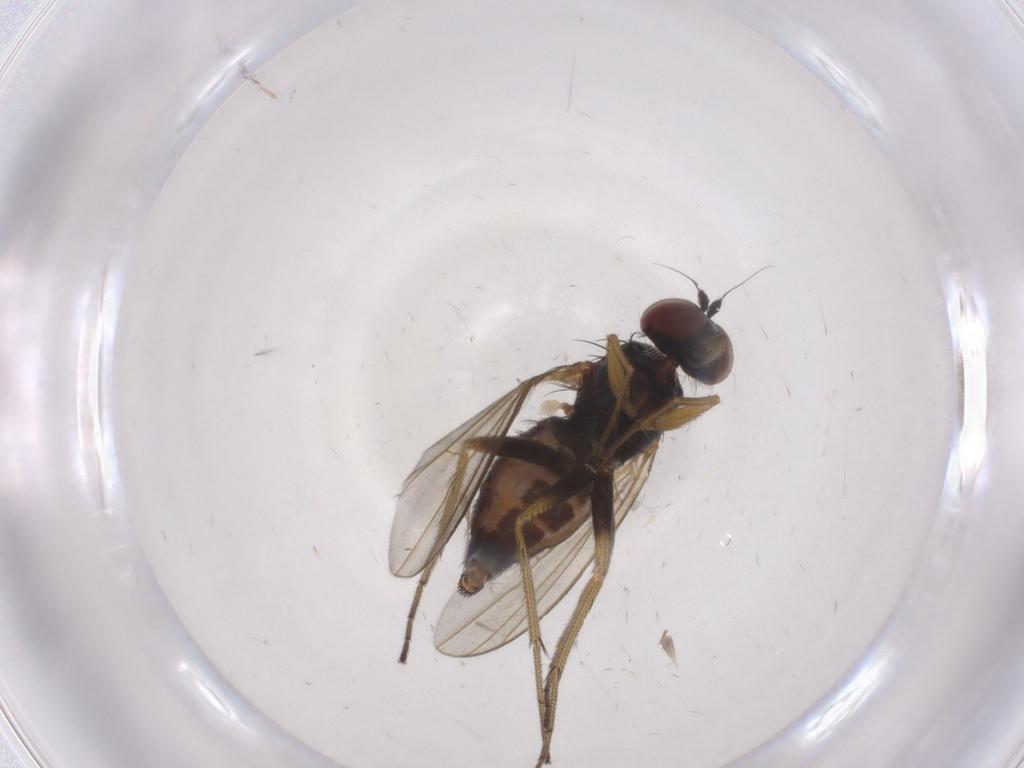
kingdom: Animalia
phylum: Arthropoda
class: Insecta
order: Diptera
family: Dolichopodidae
